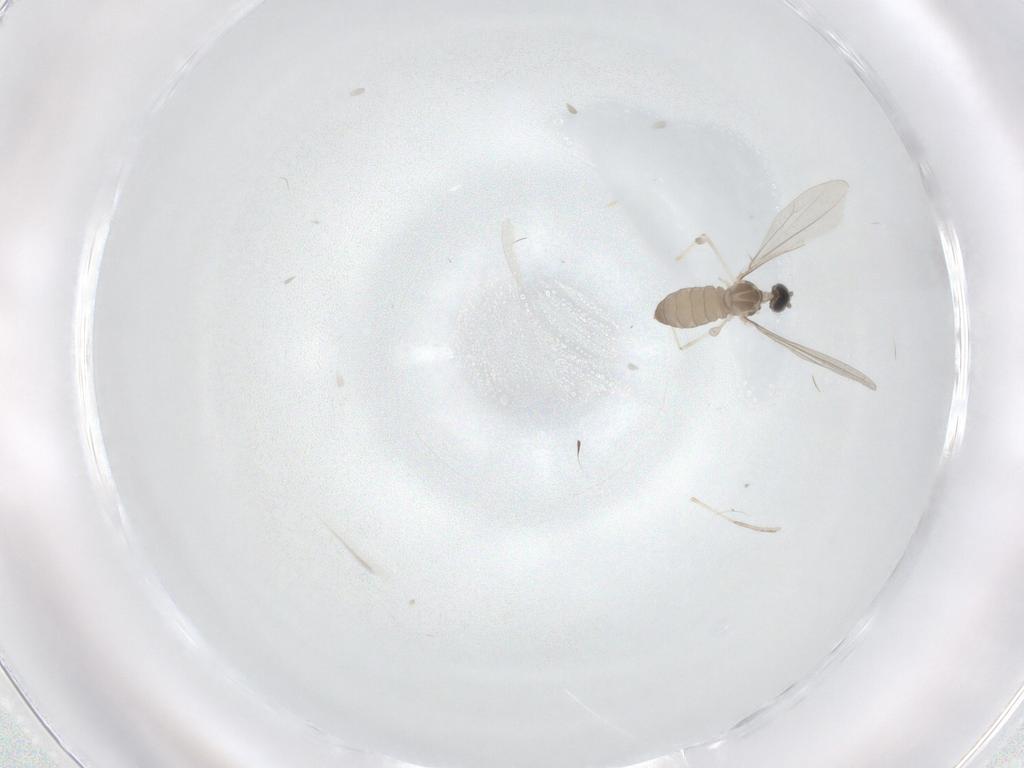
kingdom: Animalia
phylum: Arthropoda
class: Insecta
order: Diptera
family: Cecidomyiidae
